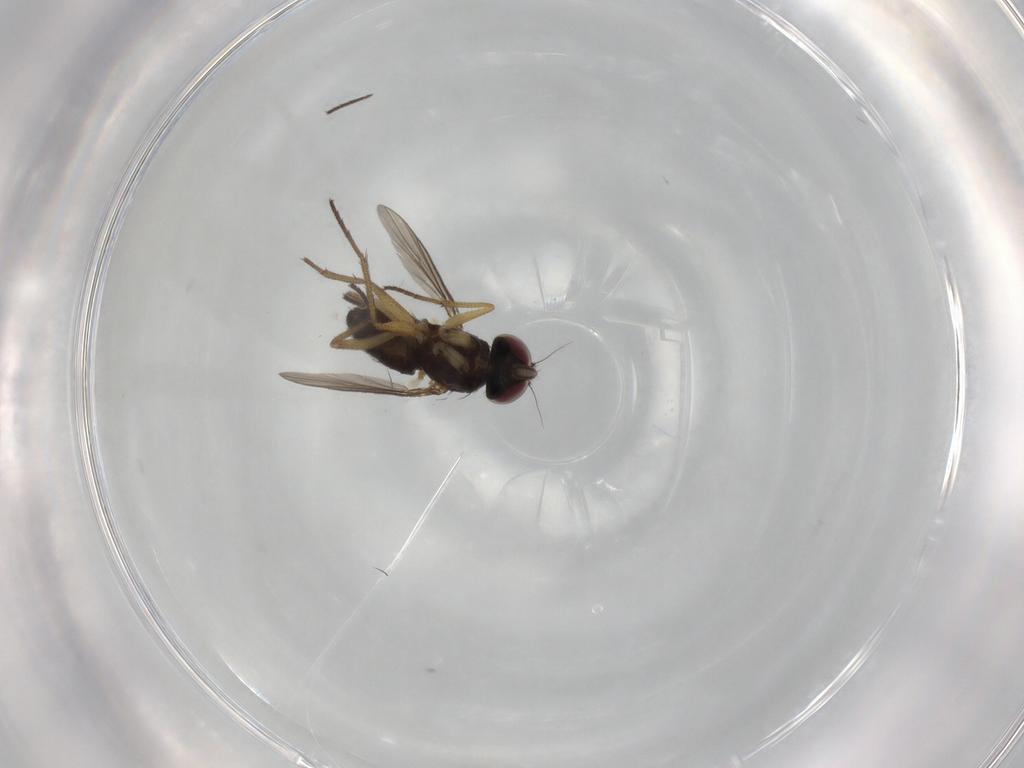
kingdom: Animalia
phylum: Arthropoda
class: Insecta
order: Diptera
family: Dolichopodidae
